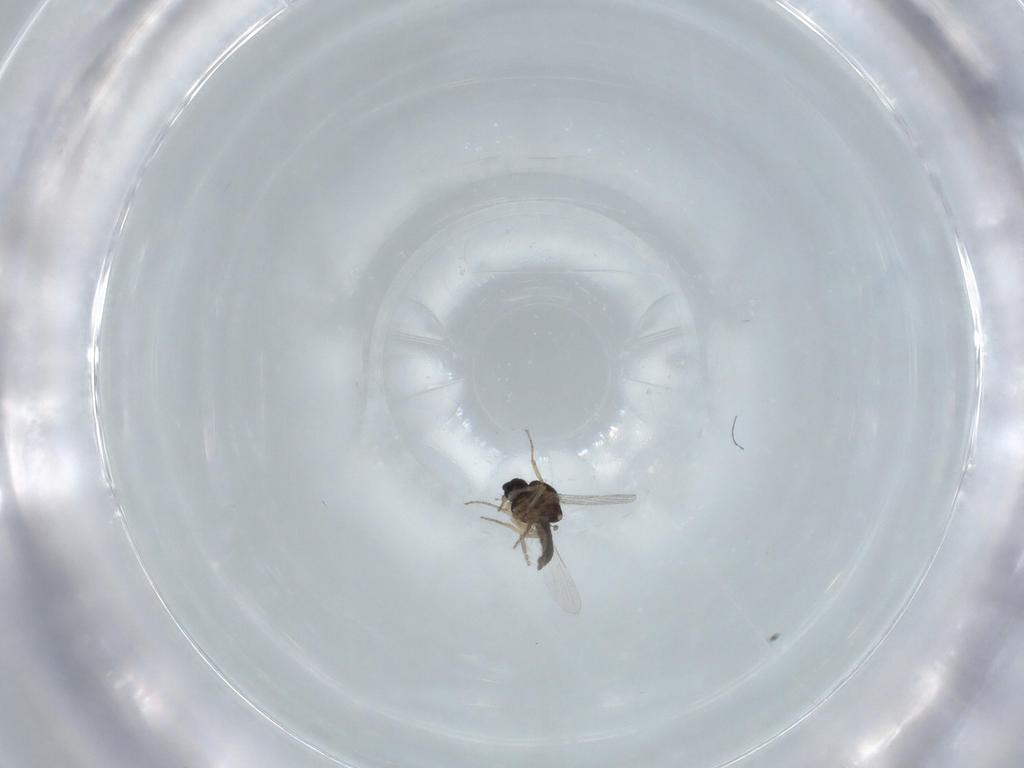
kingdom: Animalia
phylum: Arthropoda
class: Insecta
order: Diptera
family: Ceratopogonidae
